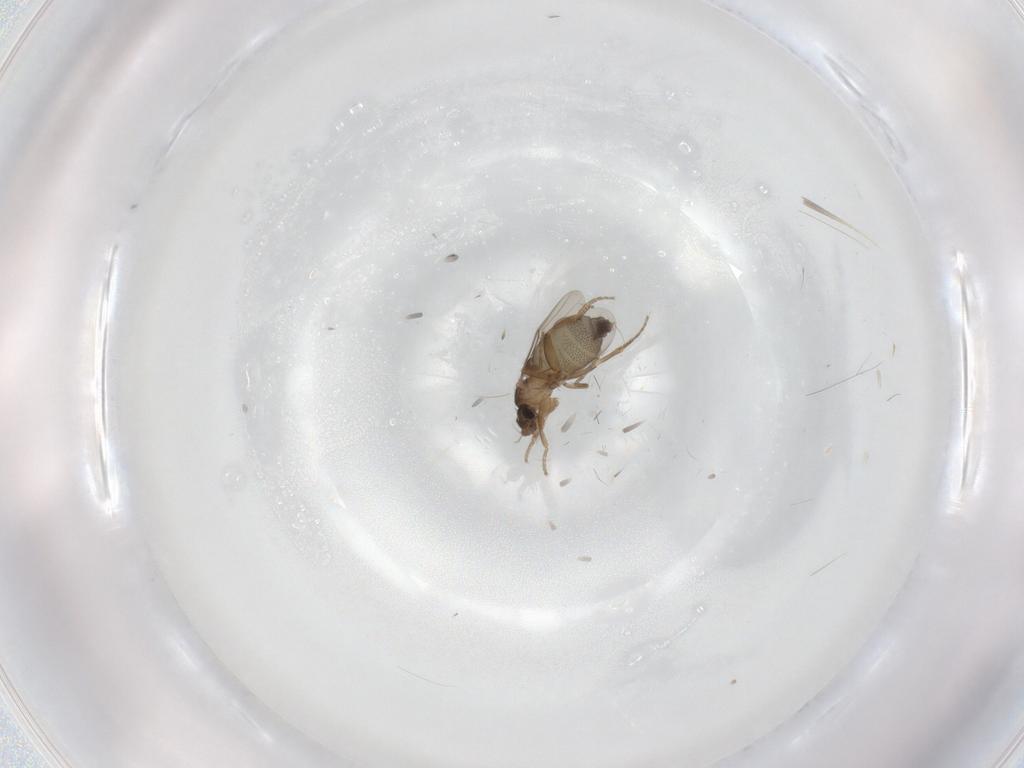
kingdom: Animalia
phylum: Arthropoda
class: Insecta
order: Diptera
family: Phoridae
